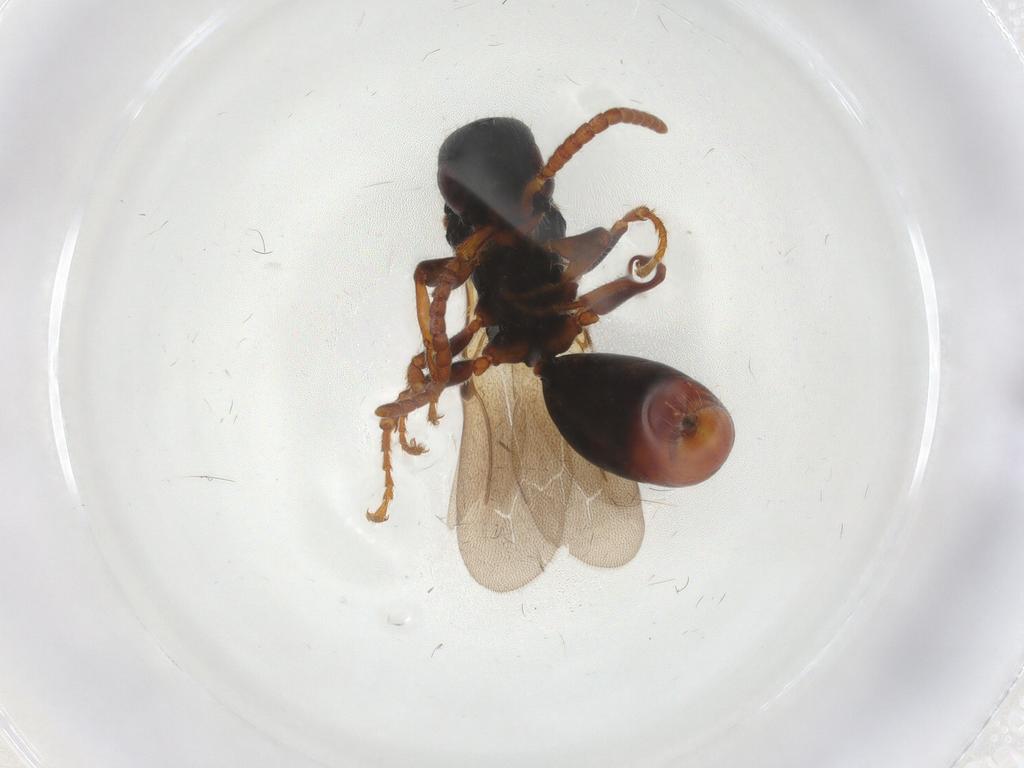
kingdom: Animalia
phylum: Arthropoda
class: Insecta
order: Hymenoptera
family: Bethylidae
